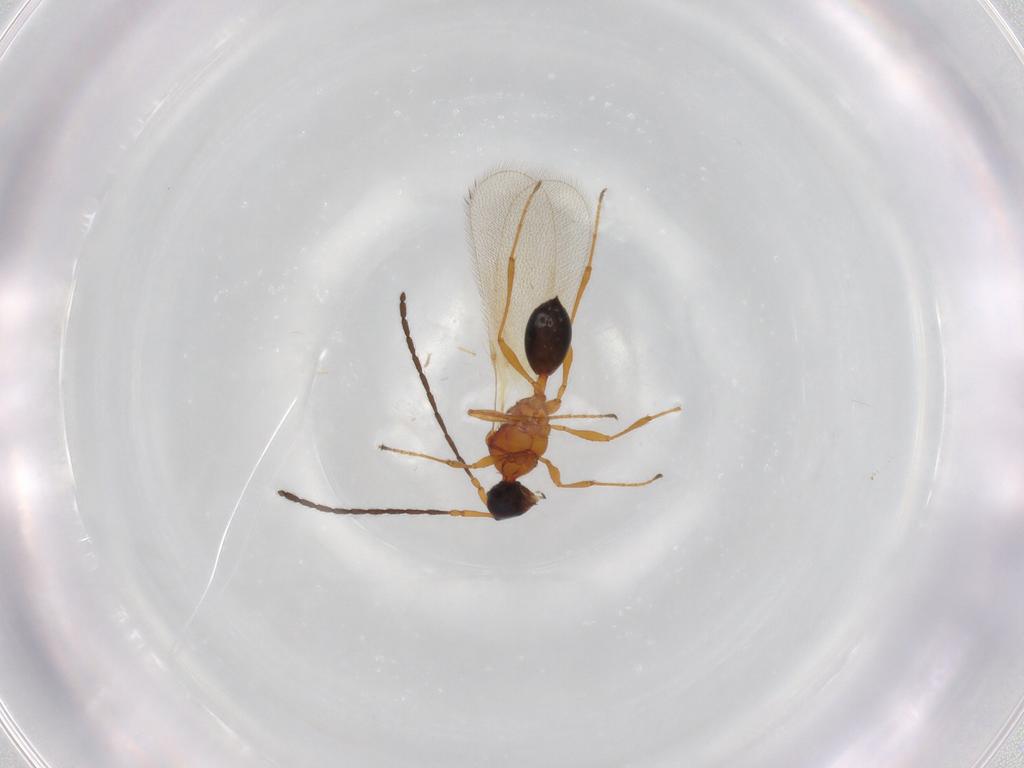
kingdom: Animalia
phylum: Arthropoda
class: Insecta
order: Hymenoptera
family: Diapriidae
